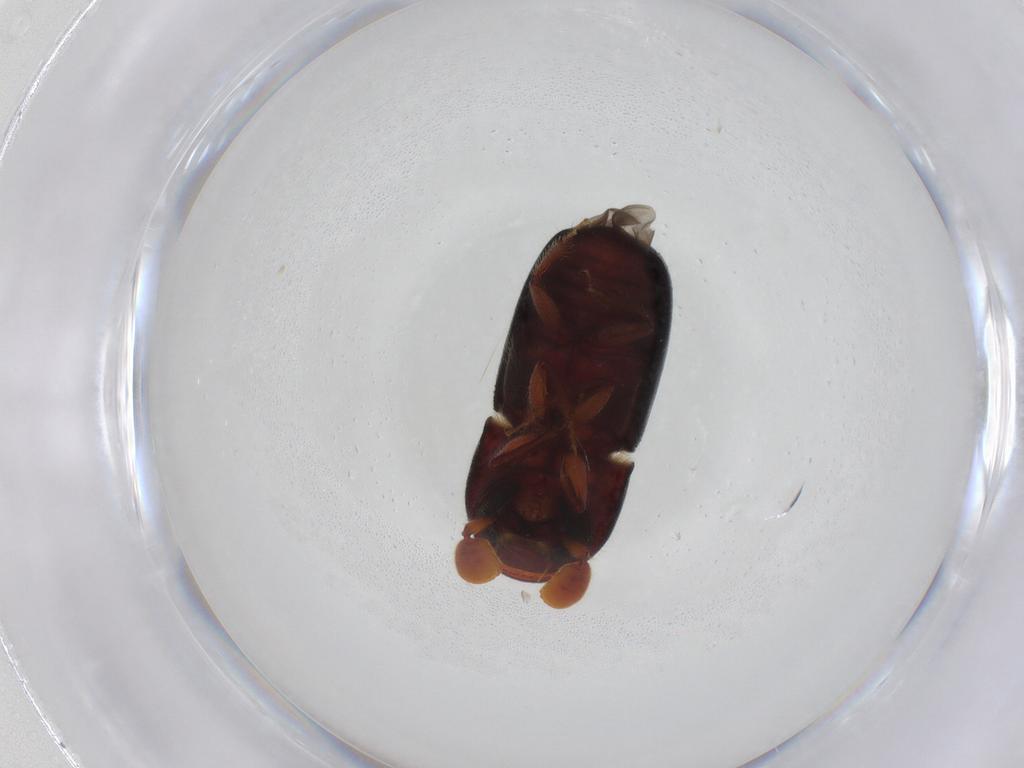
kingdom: Animalia
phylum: Arthropoda
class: Insecta
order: Coleoptera
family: Curculionidae
